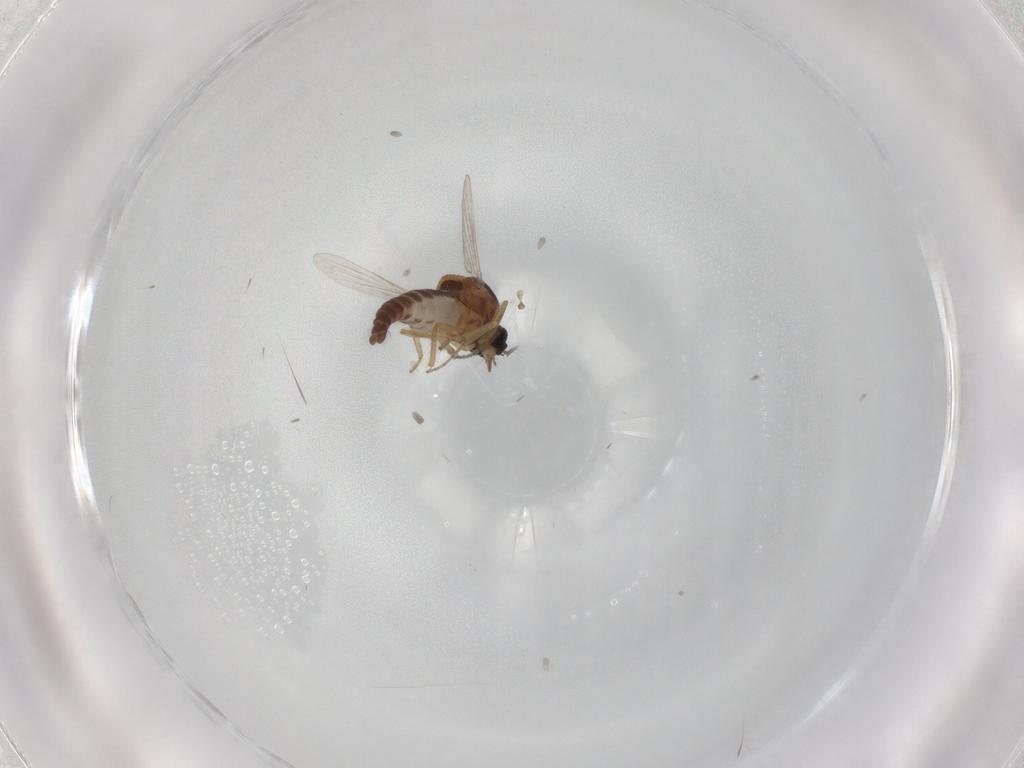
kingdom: Animalia
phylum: Arthropoda
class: Insecta
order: Diptera
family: Ceratopogonidae
